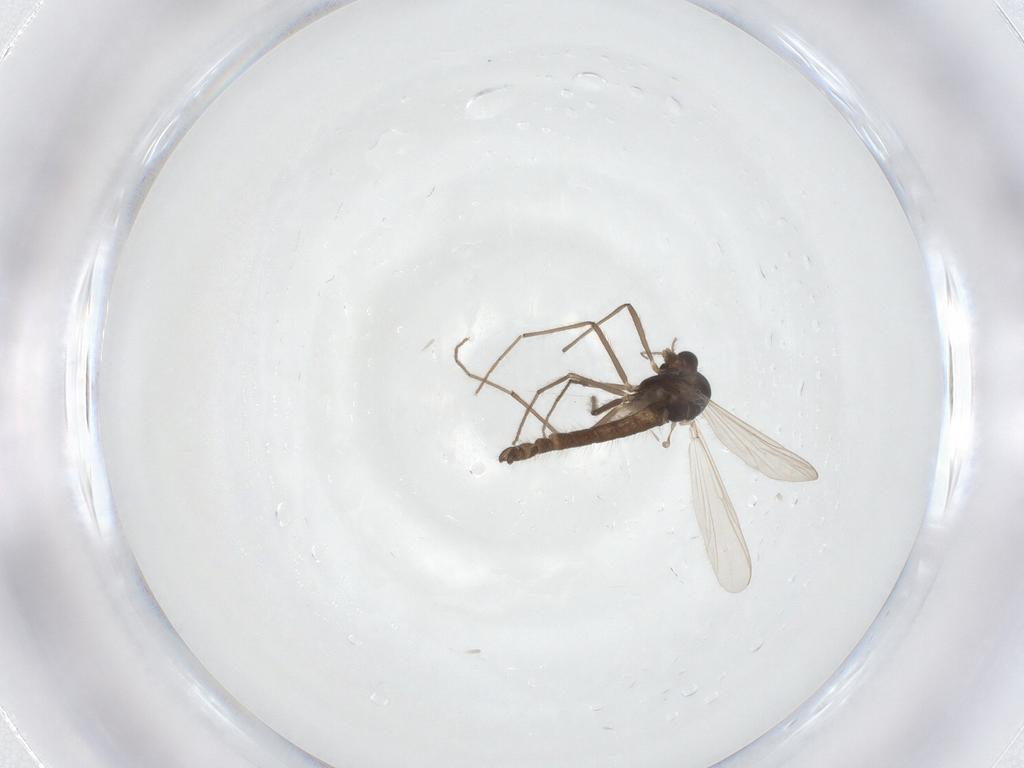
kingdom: Animalia
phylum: Arthropoda
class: Insecta
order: Diptera
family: Chironomidae
